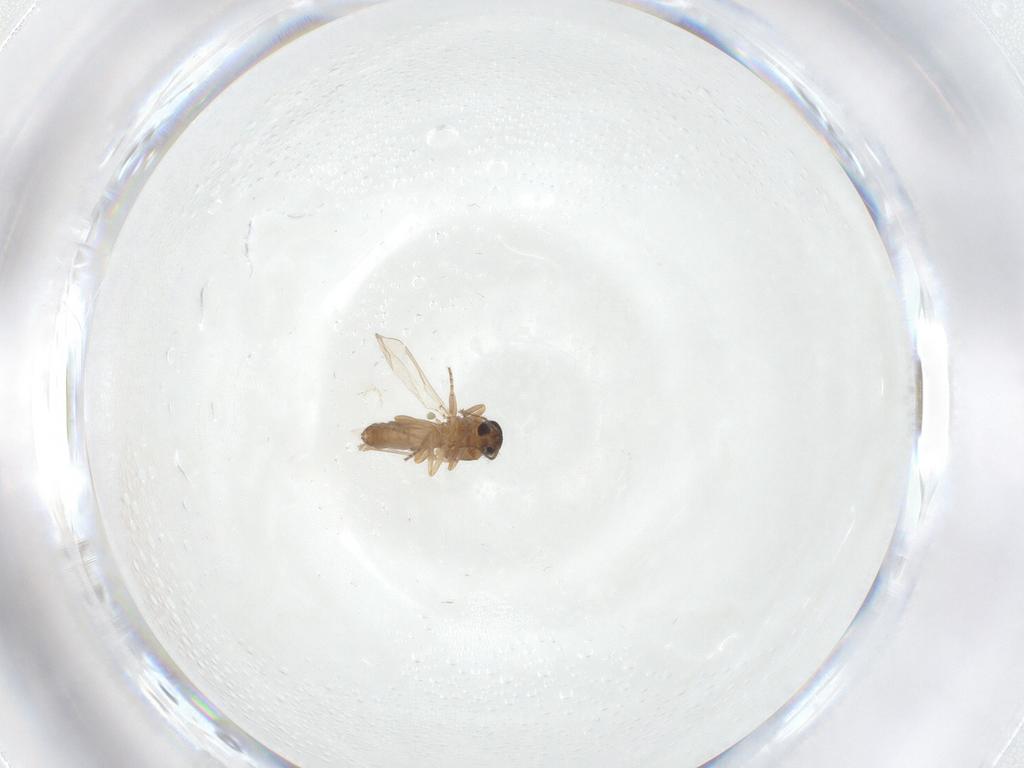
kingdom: Animalia
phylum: Arthropoda
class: Insecta
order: Diptera
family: Ceratopogonidae
